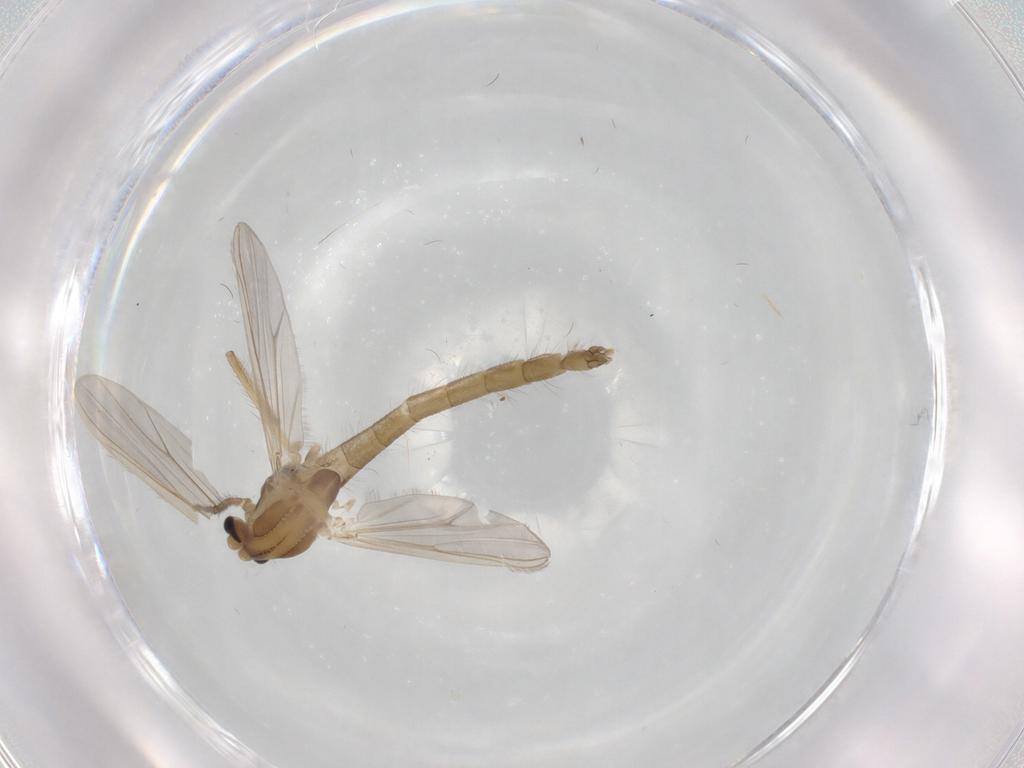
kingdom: Animalia
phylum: Arthropoda
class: Insecta
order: Diptera
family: Chironomidae
